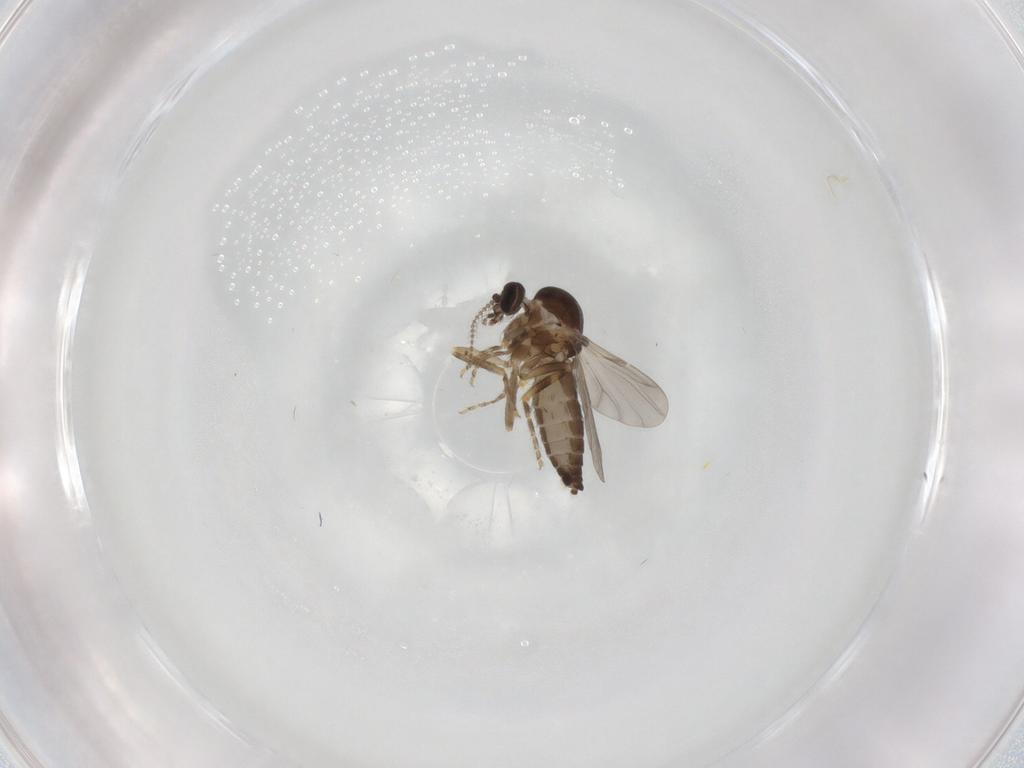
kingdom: Animalia
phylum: Arthropoda
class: Insecta
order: Diptera
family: Ceratopogonidae
